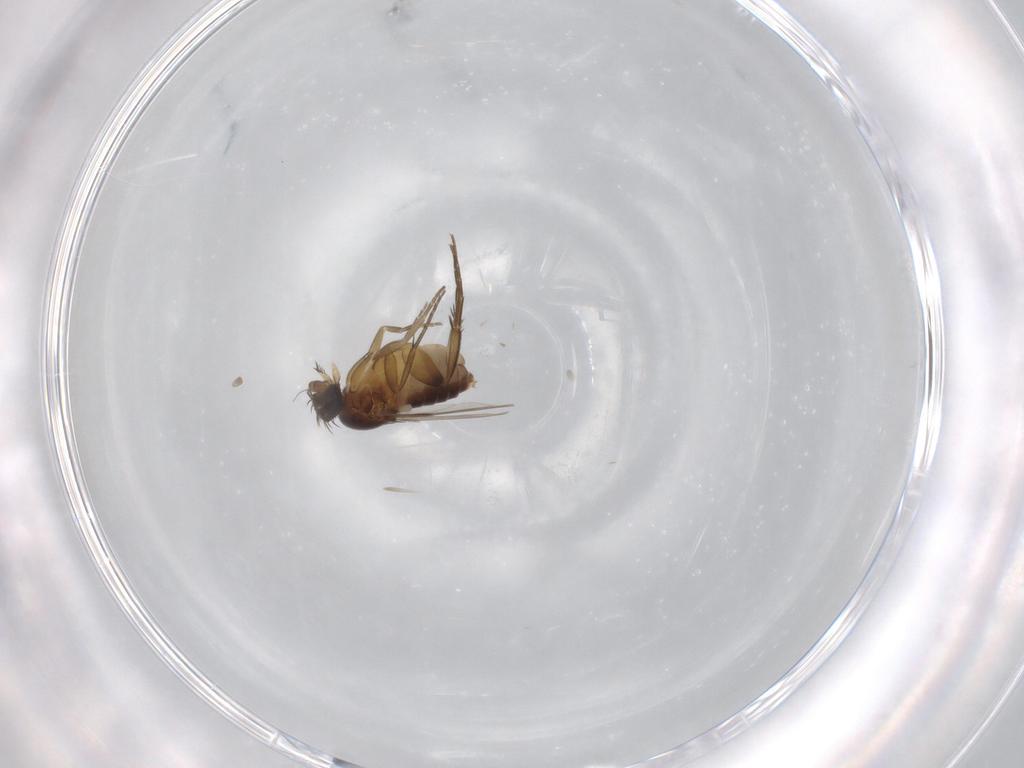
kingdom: Animalia
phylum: Arthropoda
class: Insecta
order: Diptera
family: Phoridae
